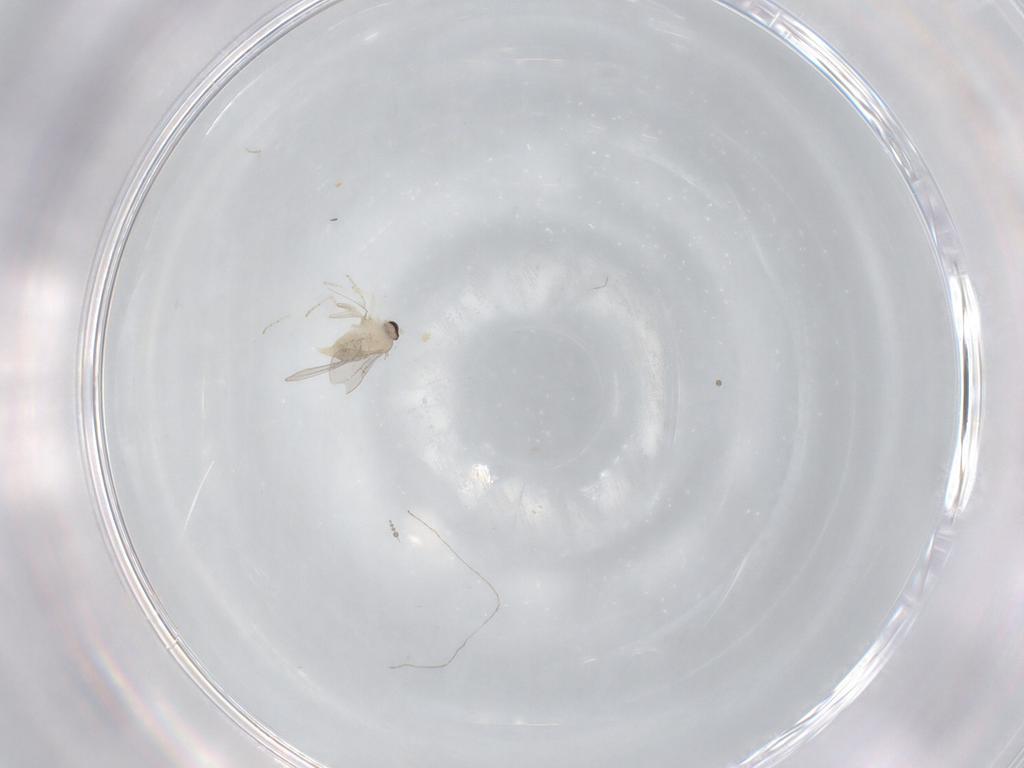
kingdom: Animalia
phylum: Arthropoda
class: Insecta
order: Diptera
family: Cecidomyiidae
